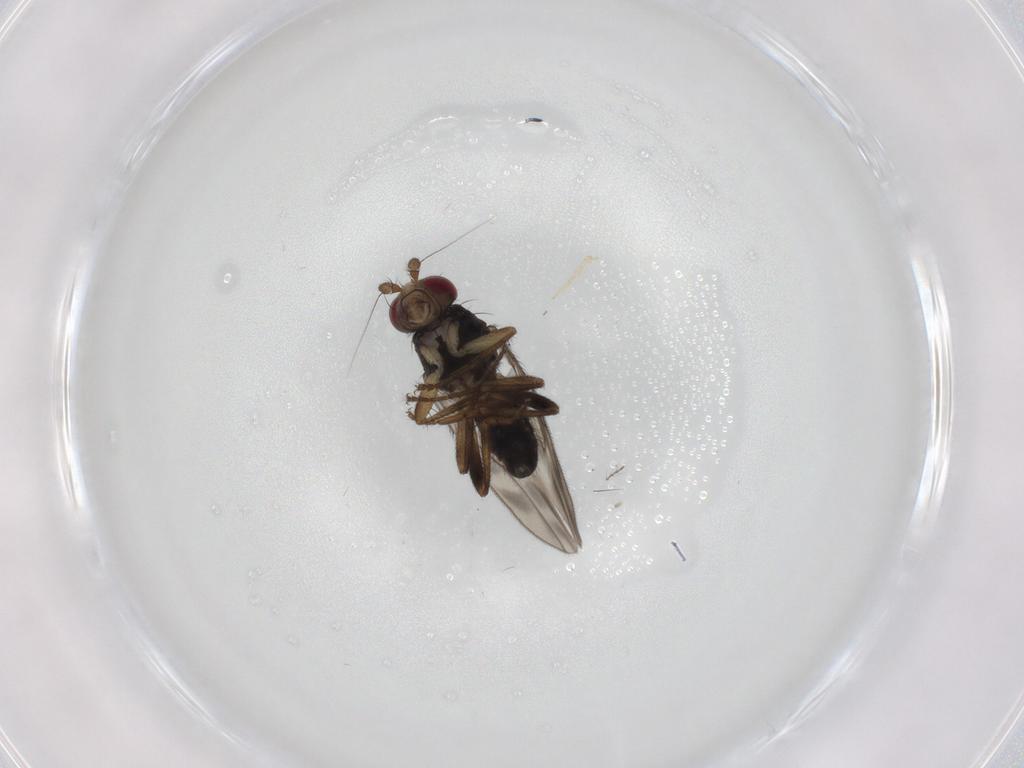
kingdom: Animalia
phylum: Arthropoda
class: Insecta
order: Diptera
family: Sphaeroceridae
